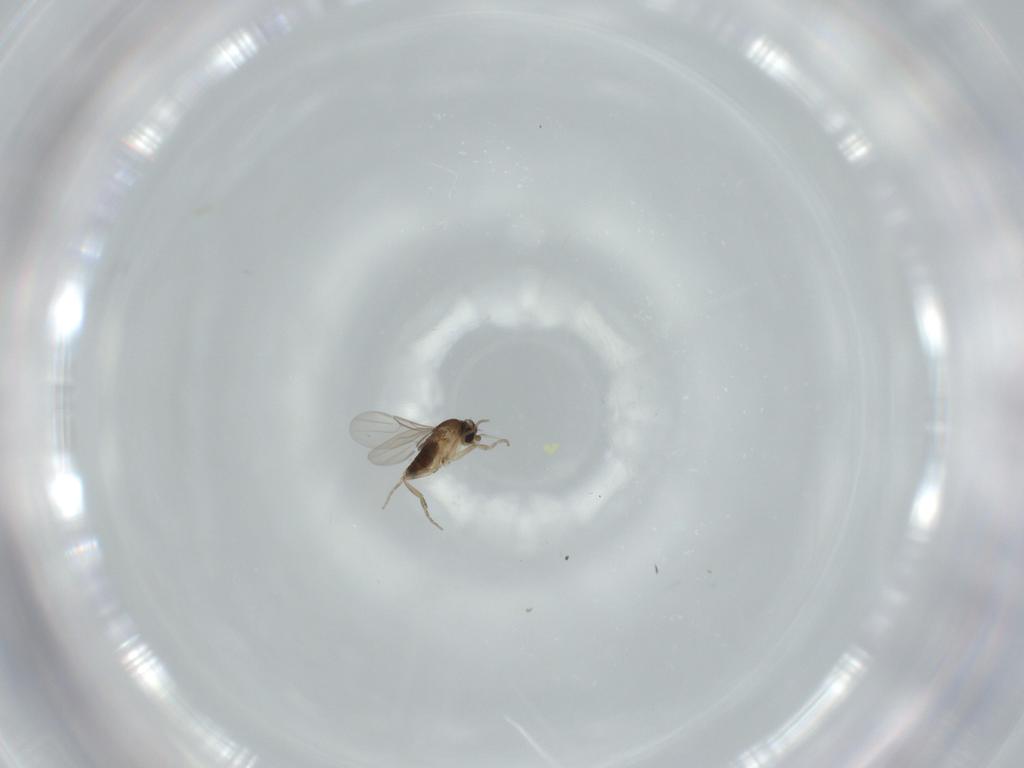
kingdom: Animalia
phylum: Arthropoda
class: Insecta
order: Diptera
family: Phoridae
